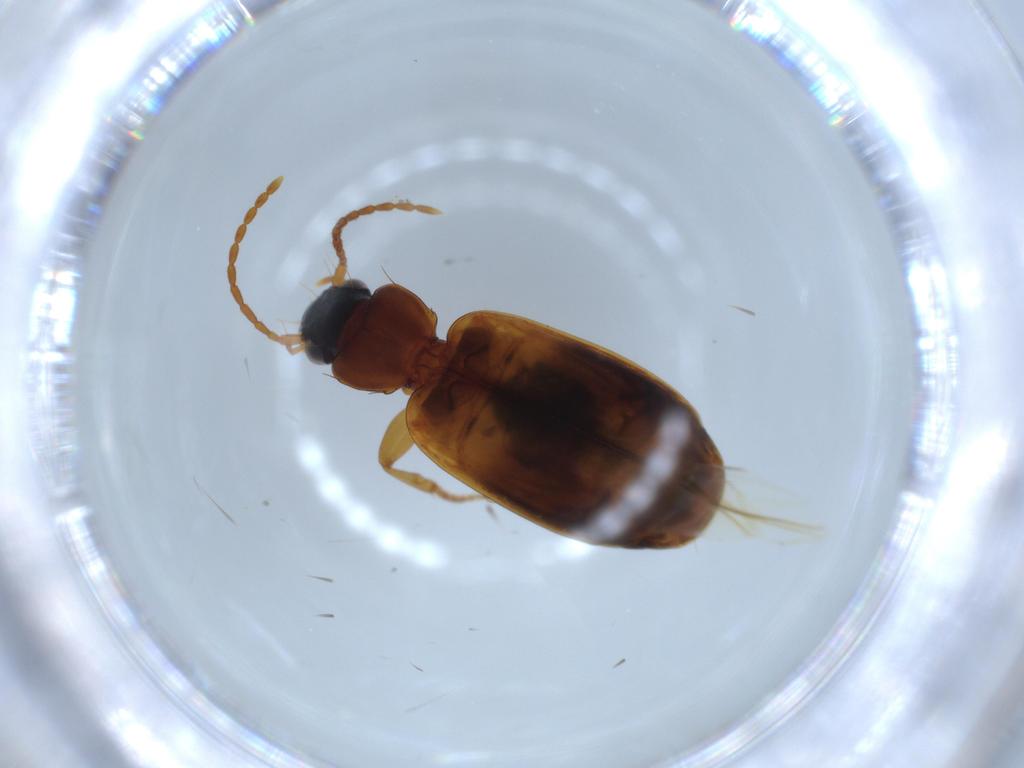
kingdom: Animalia
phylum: Arthropoda
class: Insecta
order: Coleoptera
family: Carabidae
